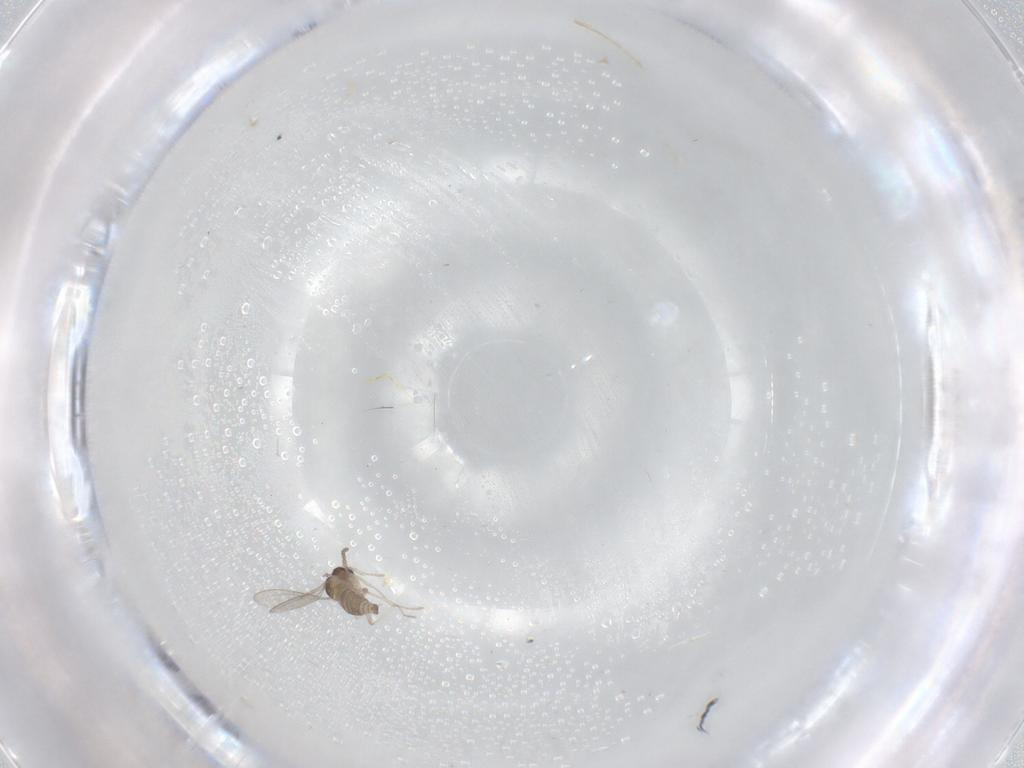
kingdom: Animalia
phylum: Arthropoda
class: Insecta
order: Diptera
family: Cecidomyiidae
